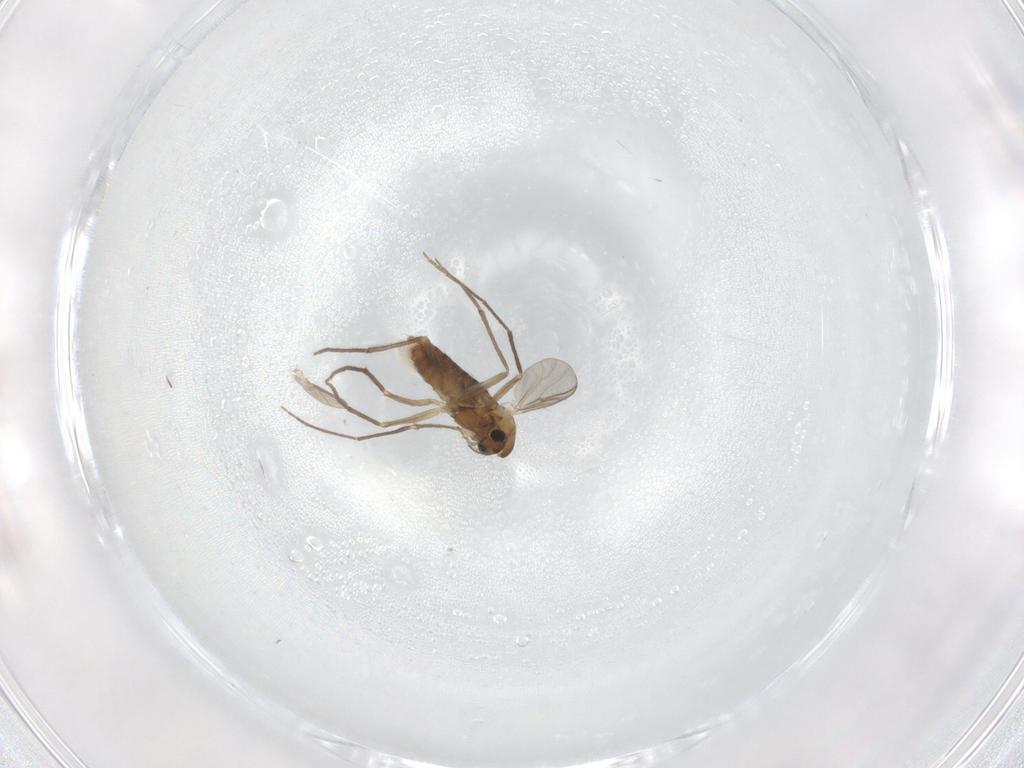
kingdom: Animalia
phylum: Arthropoda
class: Insecta
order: Diptera
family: Chironomidae
